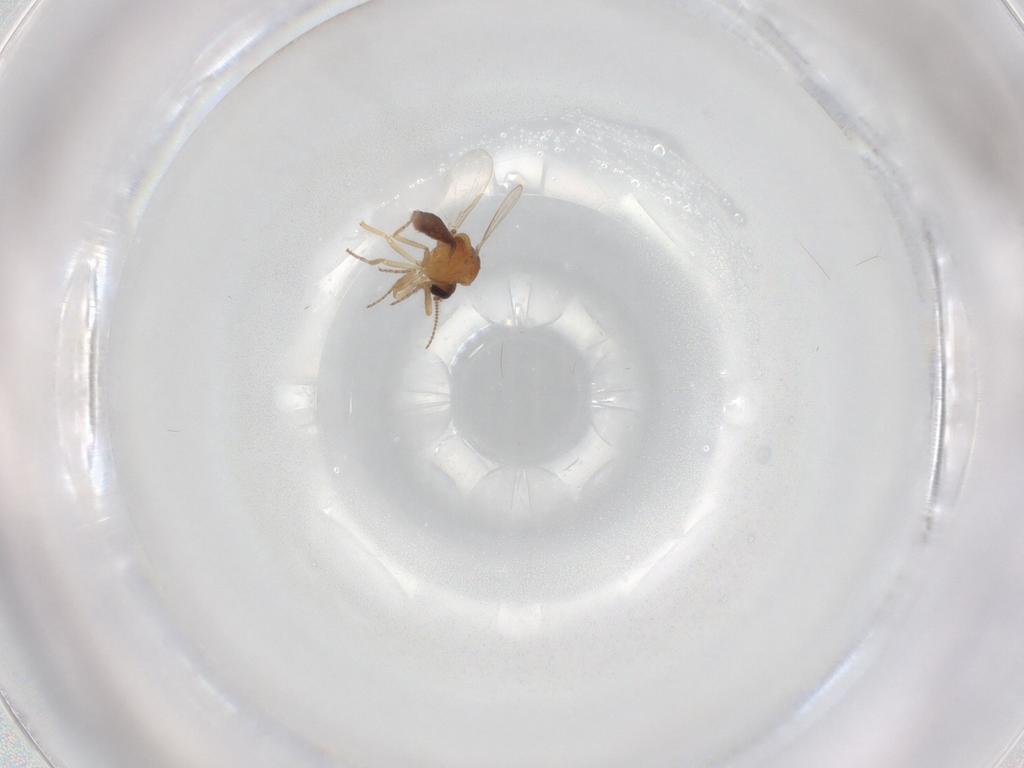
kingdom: Animalia
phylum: Arthropoda
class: Insecta
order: Diptera
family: Ceratopogonidae
